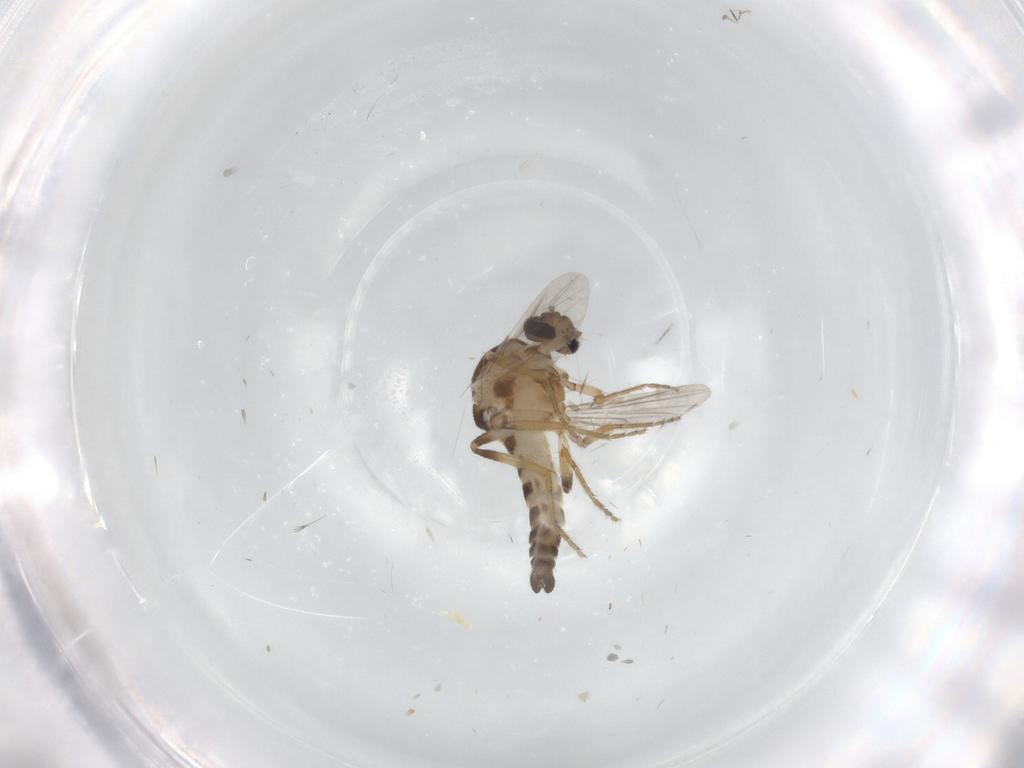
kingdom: Animalia
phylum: Arthropoda
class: Insecta
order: Diptera
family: Ceratopogonidae
